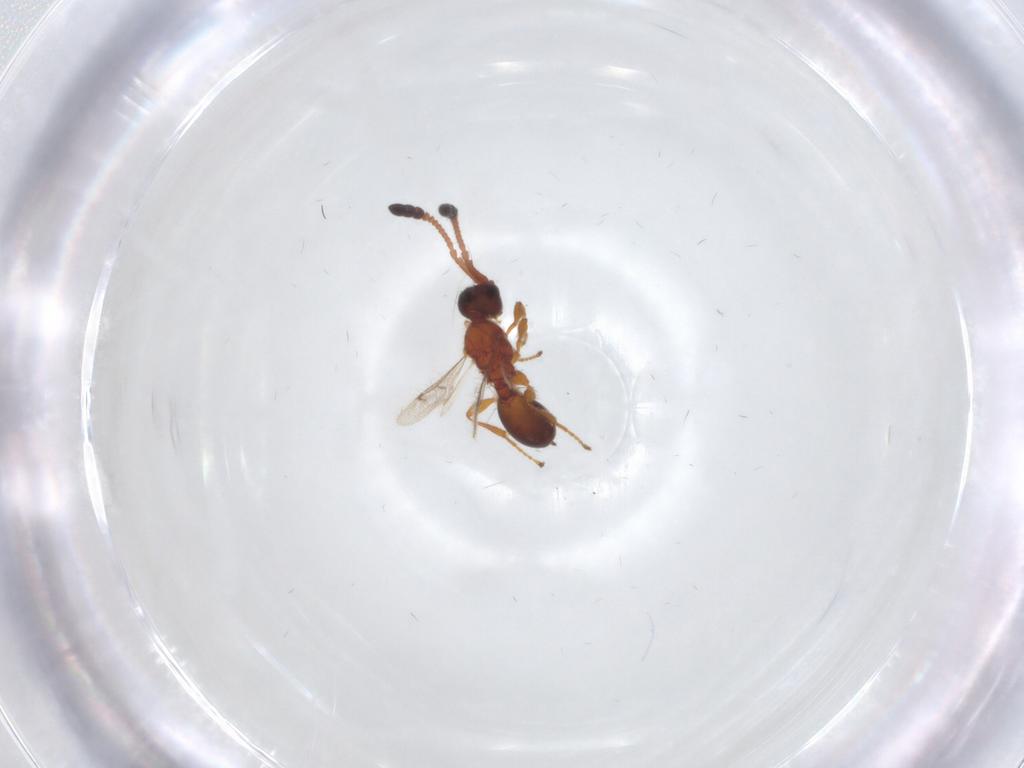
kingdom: Animalia
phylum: Arthropoda
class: Insecta
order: Hymenoptera
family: Diapriidae
